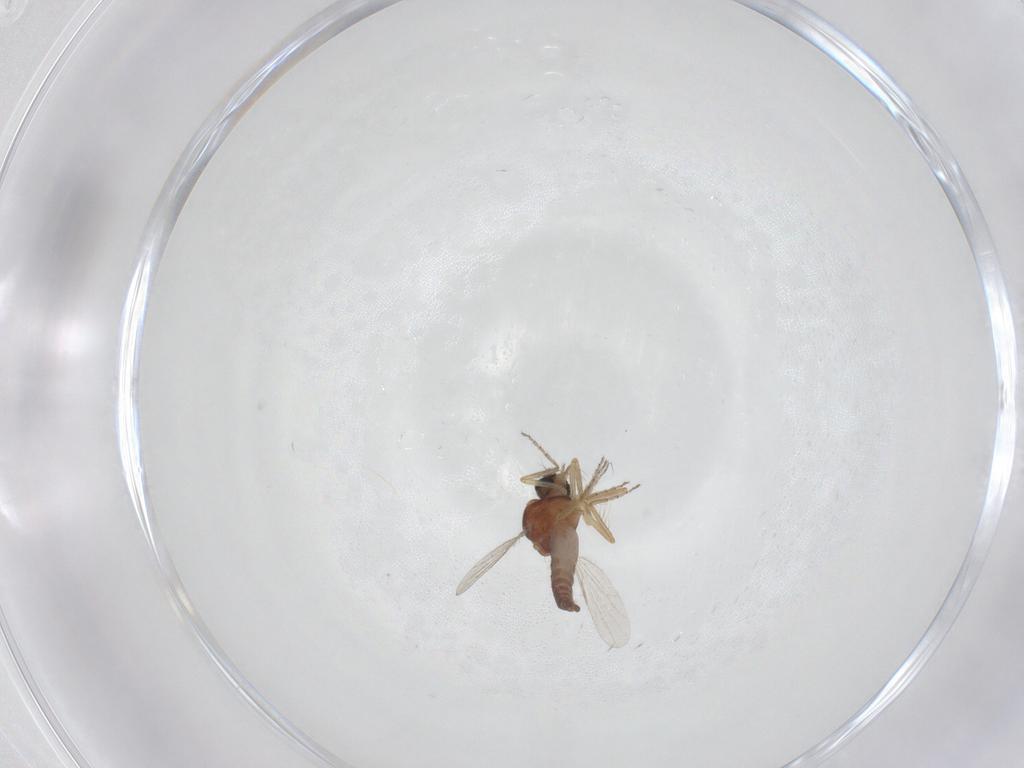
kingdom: Animalia
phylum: Arthropoda
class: Insecta
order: Diptera
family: Ceratopogonidae
